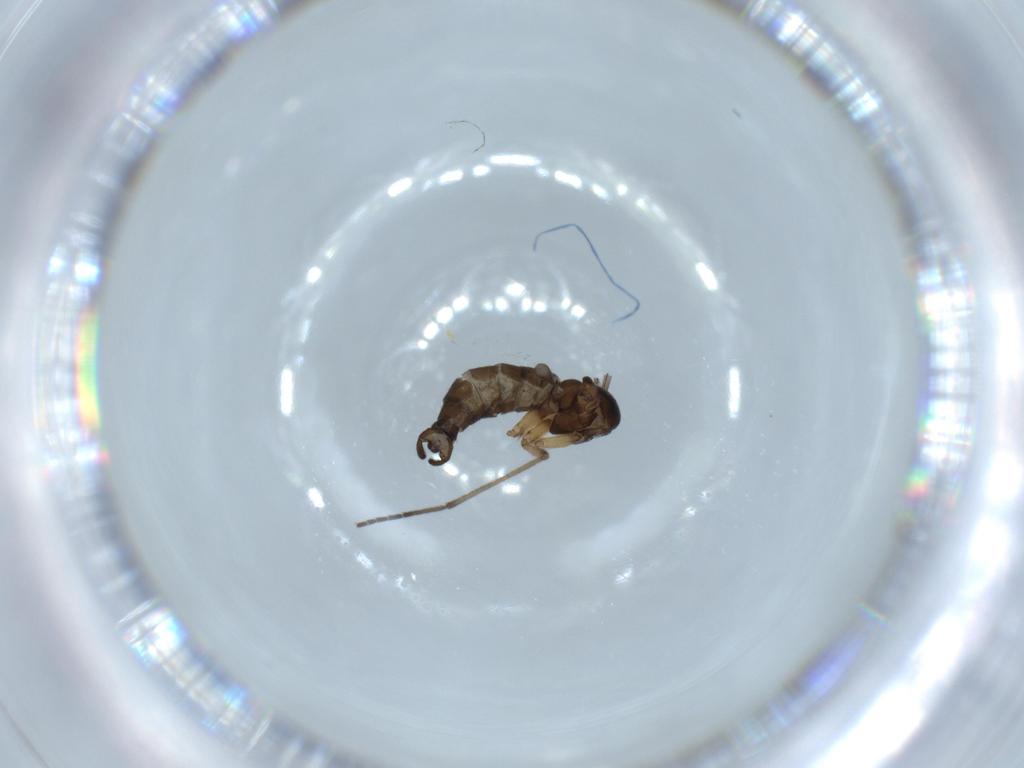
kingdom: Animalia
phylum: Arthropoda
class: Insecta
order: Diptera
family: Sciaridae
